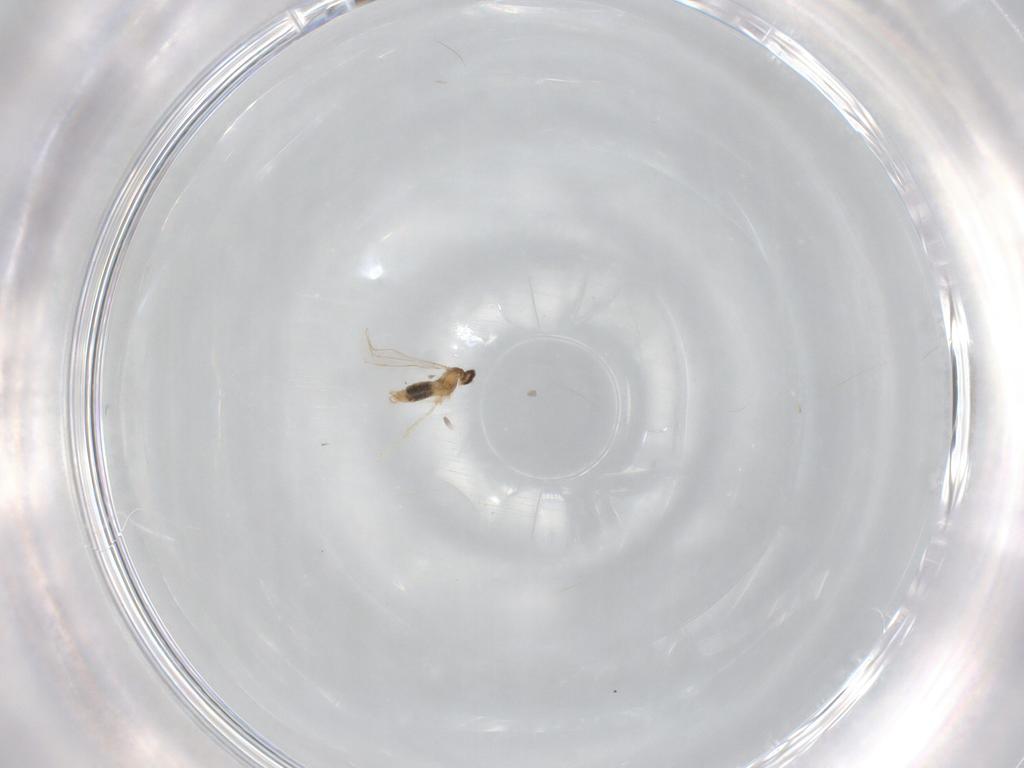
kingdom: Animalia
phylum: Arthropoda
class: Insecta
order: Diptera
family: Cecidomyiidae
